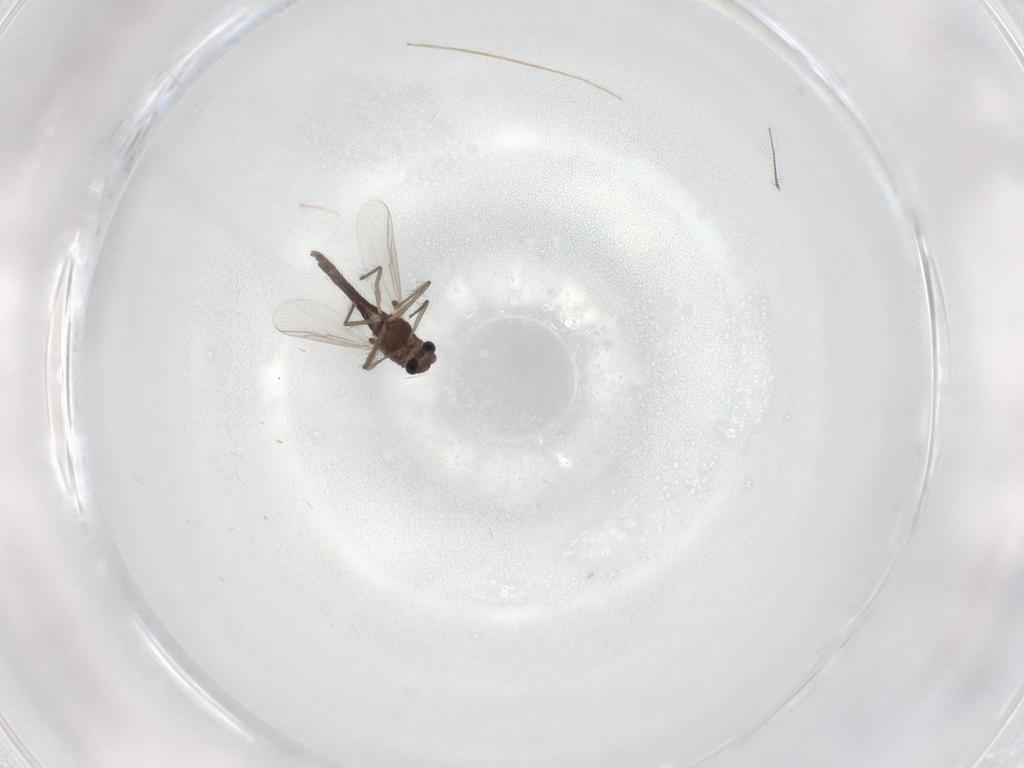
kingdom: Animalia
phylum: Arthropoda
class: Insecta
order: Diptera
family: Chironomidae
